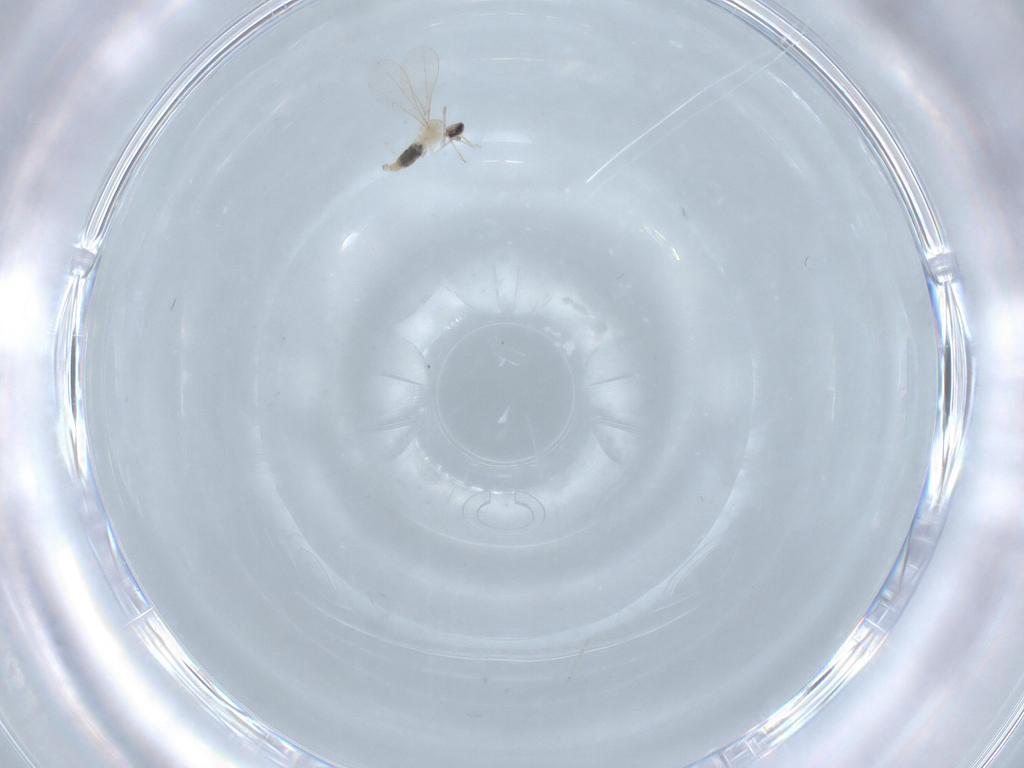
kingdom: Animalia
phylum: Arthropoda
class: Insecta
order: Diptera
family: Cecidomyiidae
